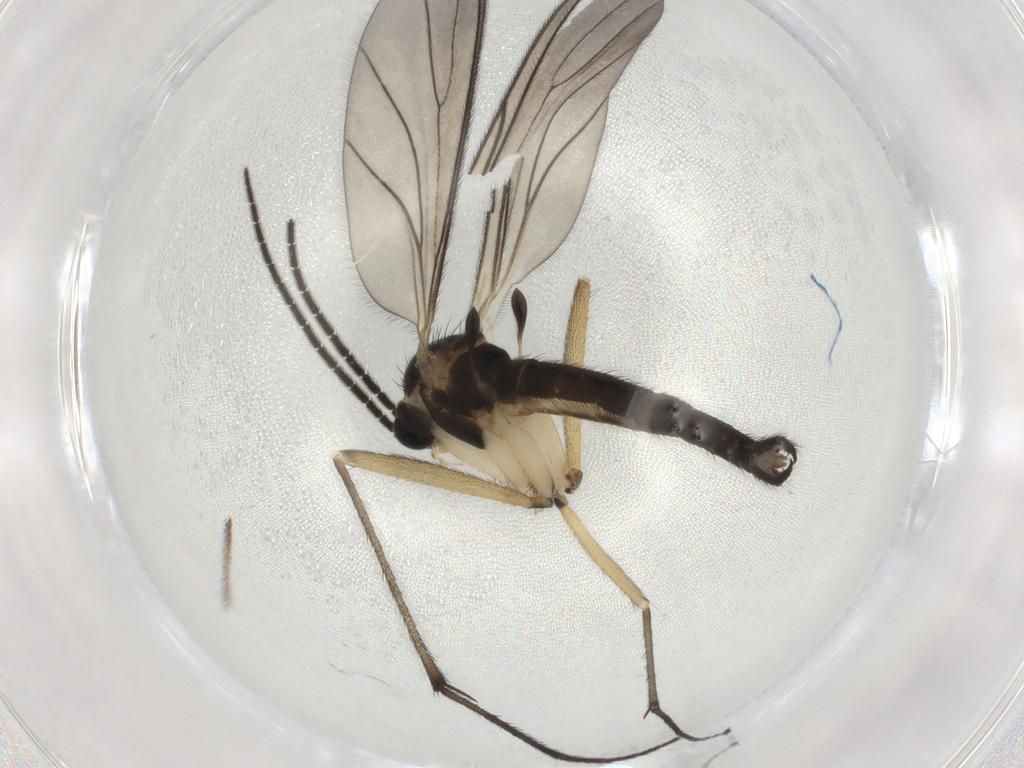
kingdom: Animalia
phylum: Arthropoda
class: Insecta
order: Diptera
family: Sciaridae
